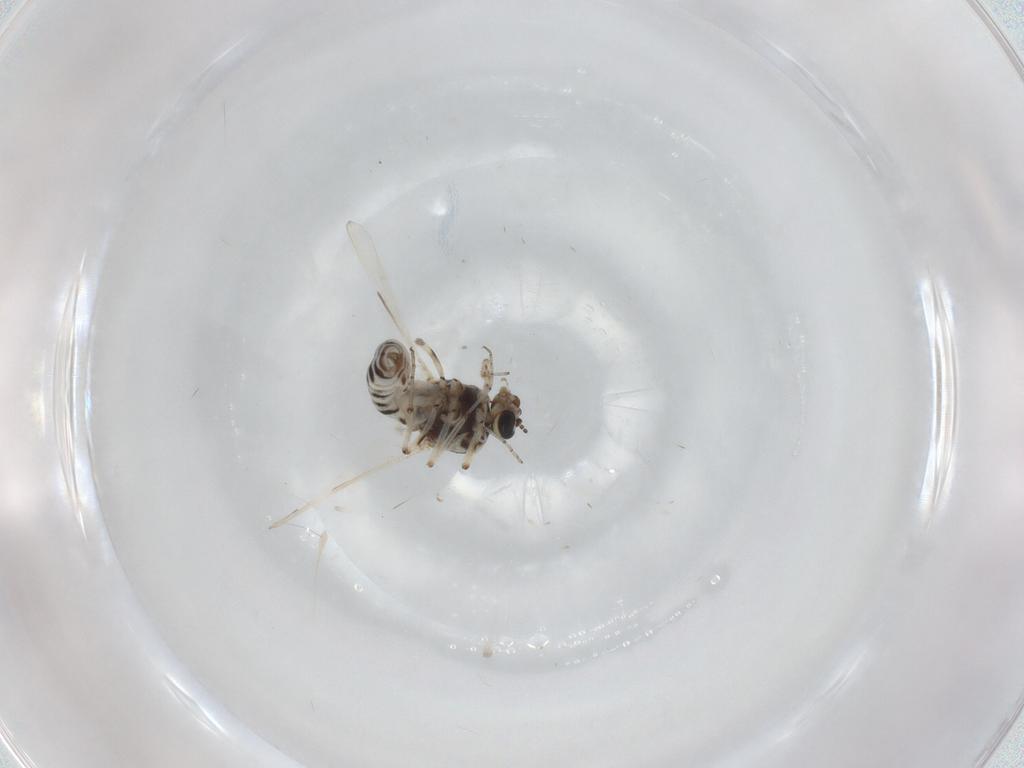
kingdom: Animalia
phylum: Arthropoda
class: Insecta
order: Diptera
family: Ceratopogonidae
